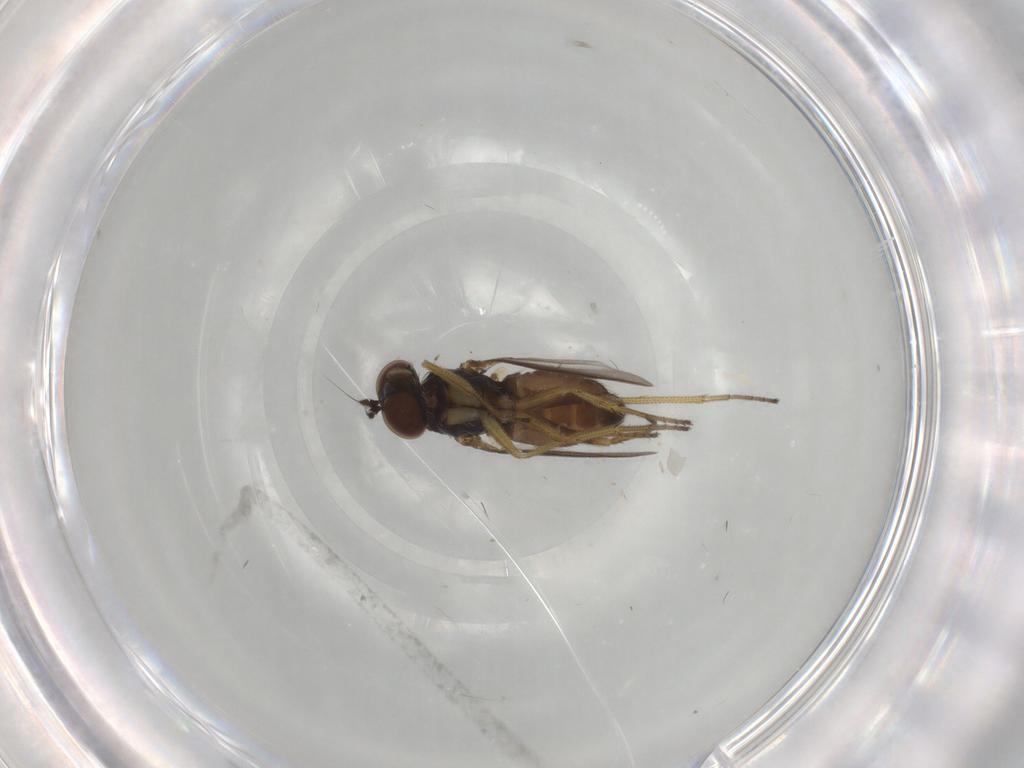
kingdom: Animalia
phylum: Arthropoda
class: Insecta
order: Diptera
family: Dolichopodidae
